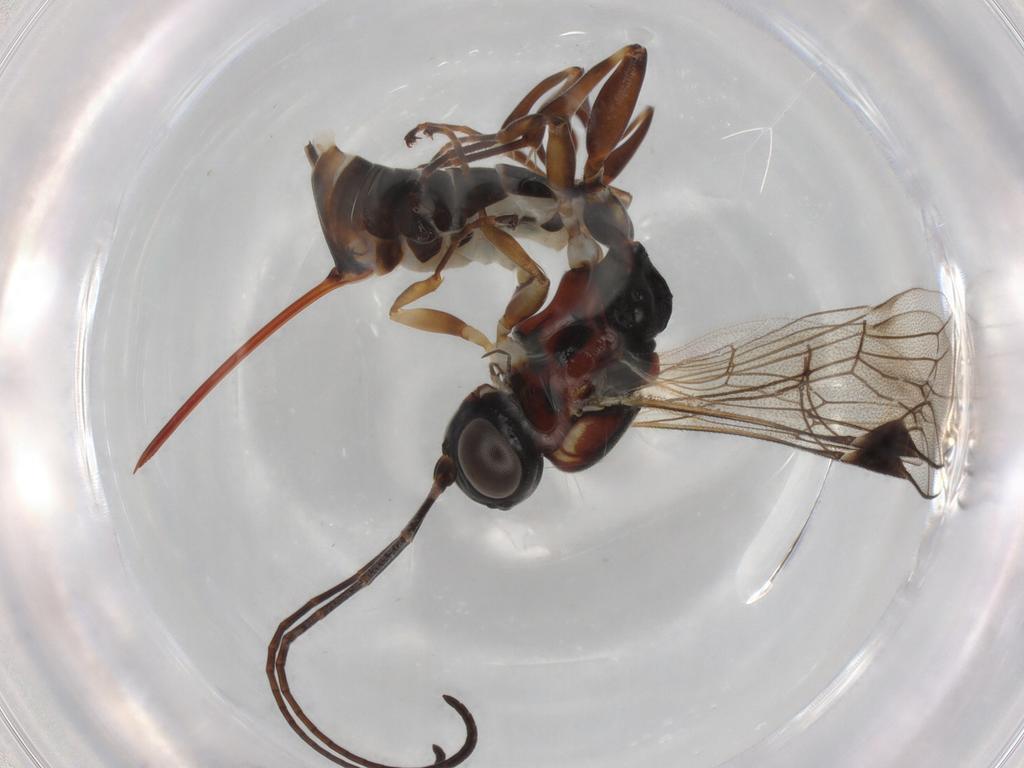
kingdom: Animalia
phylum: Arthropoda
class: Insecta
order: Hymenoptera
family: Ichneumonidae
